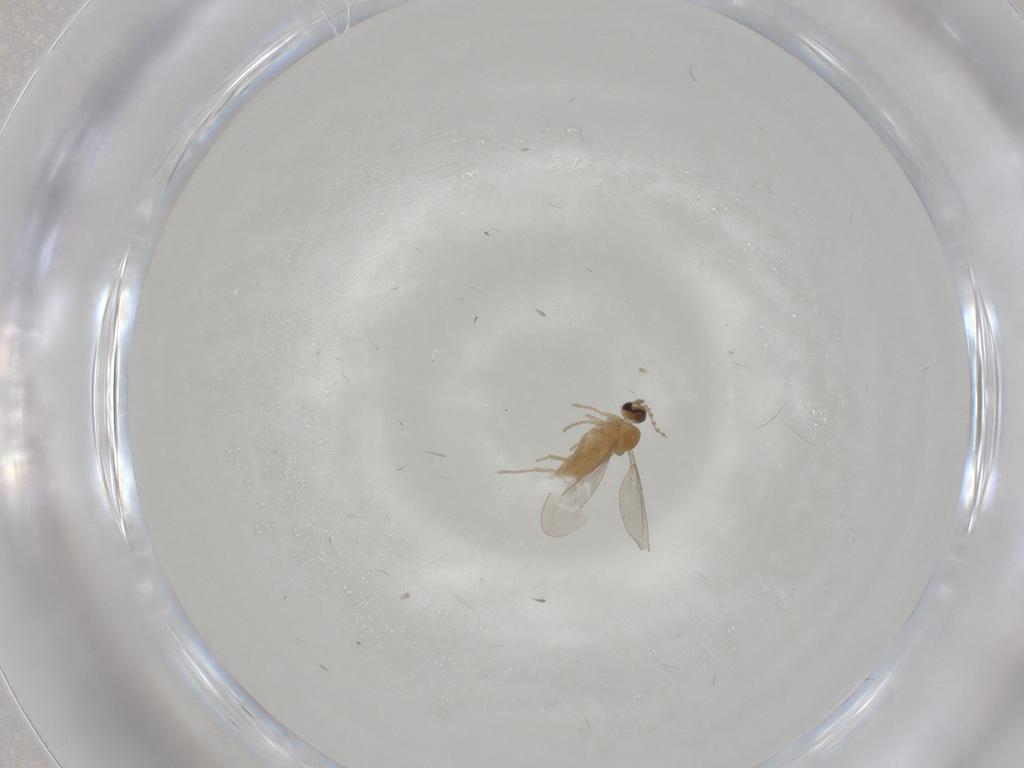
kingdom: Animalia
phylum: Arthropoda
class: Insecta
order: Diptera
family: Cecidomyiidae
